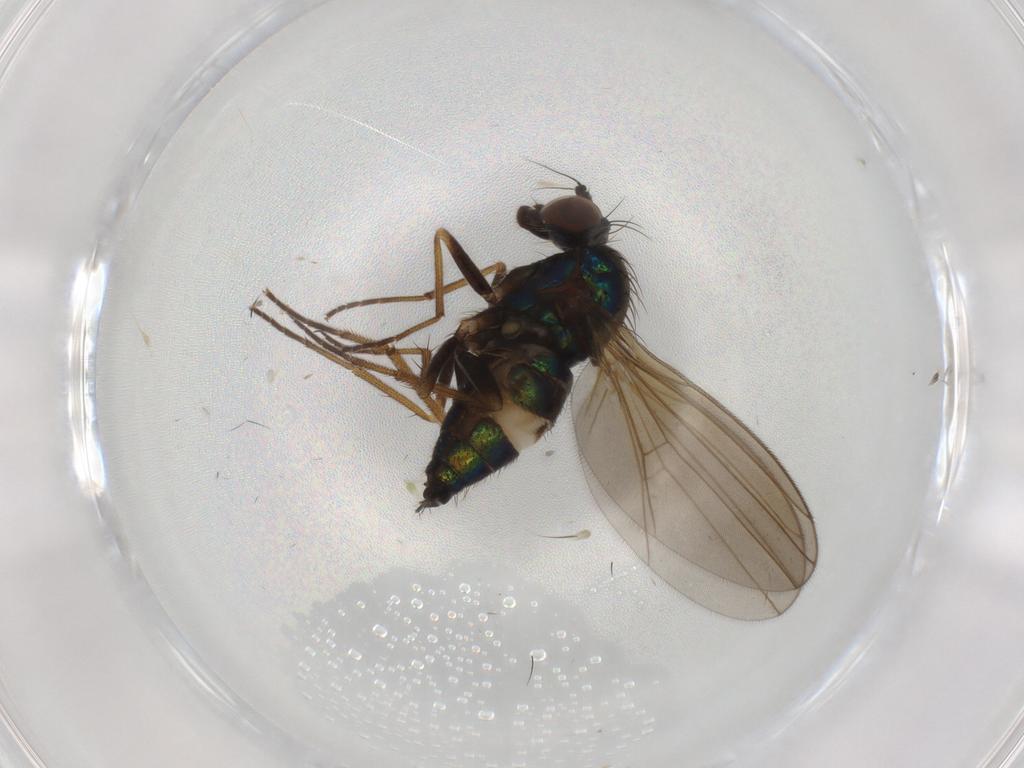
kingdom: Animalia
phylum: Arthropoda
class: Insecta
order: Diptera
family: Dolichopodidae
